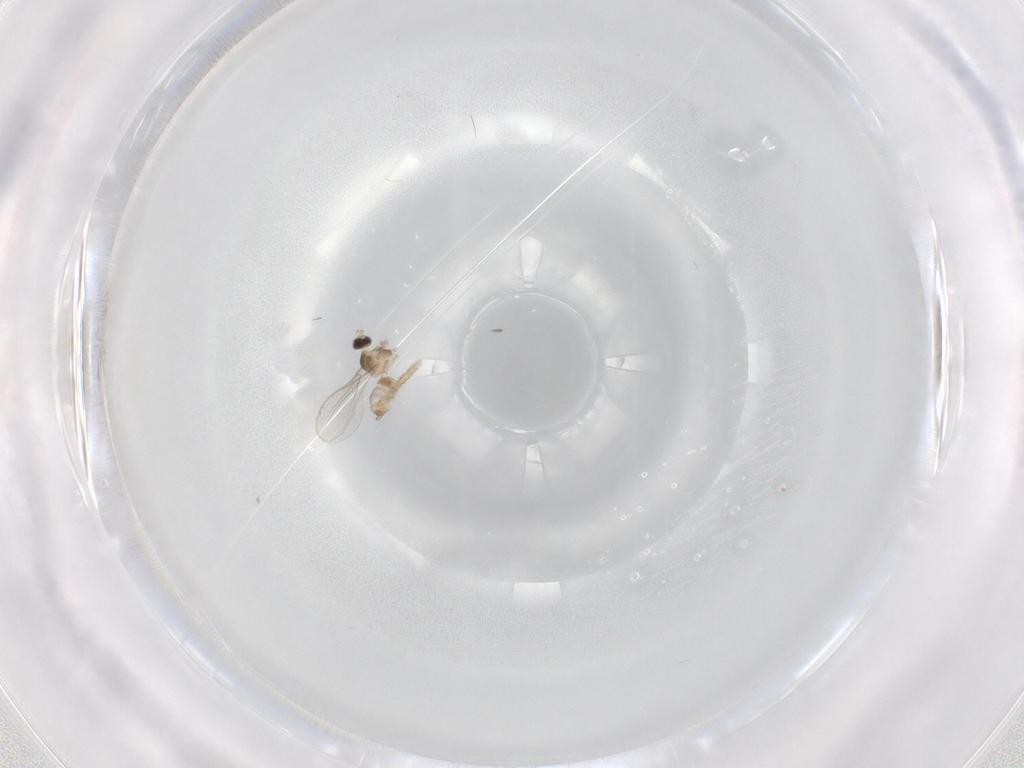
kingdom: Animalia
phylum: Arthropoda
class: Insecta
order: Diptera
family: Cecidomyiidae
